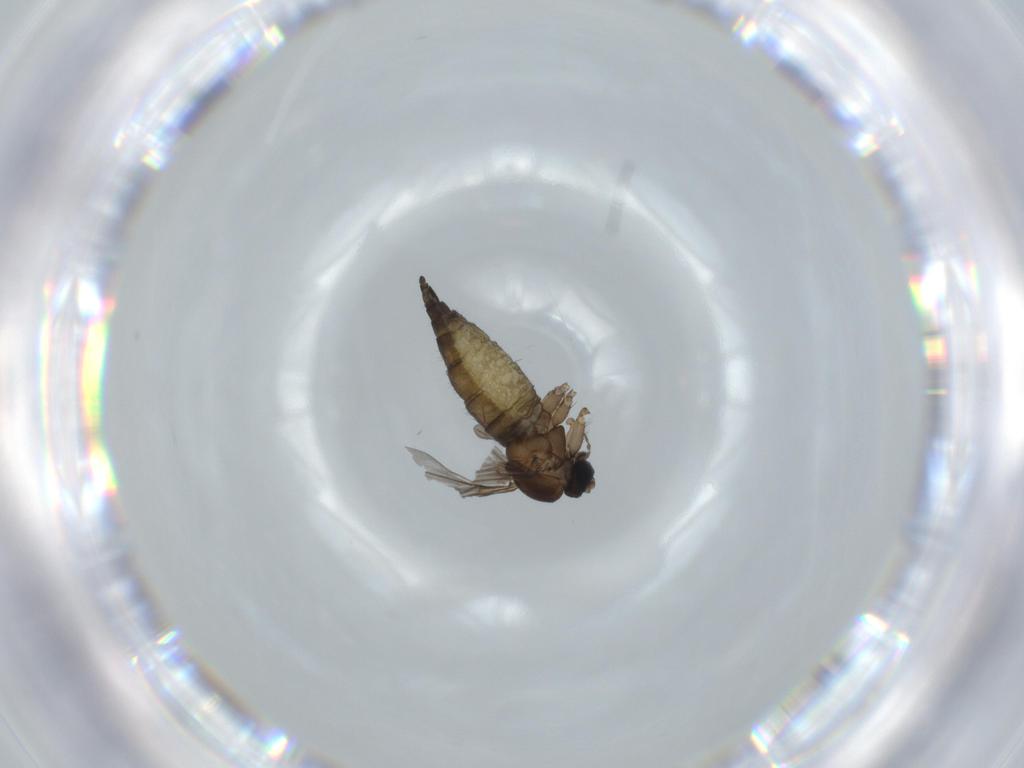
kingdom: Animalia
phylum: Arthropoda
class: Insecta
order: Diptera
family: Sciaridae
